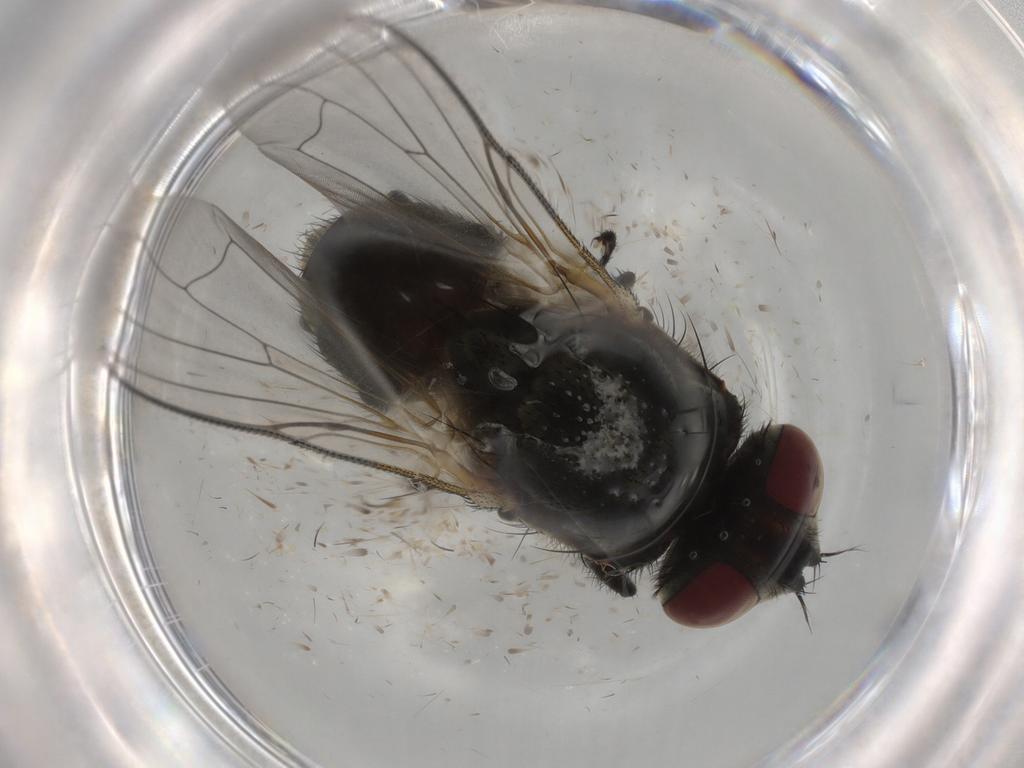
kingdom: Animalia
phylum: Arthropoda
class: Insecta
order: Diptera
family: Muscidae
